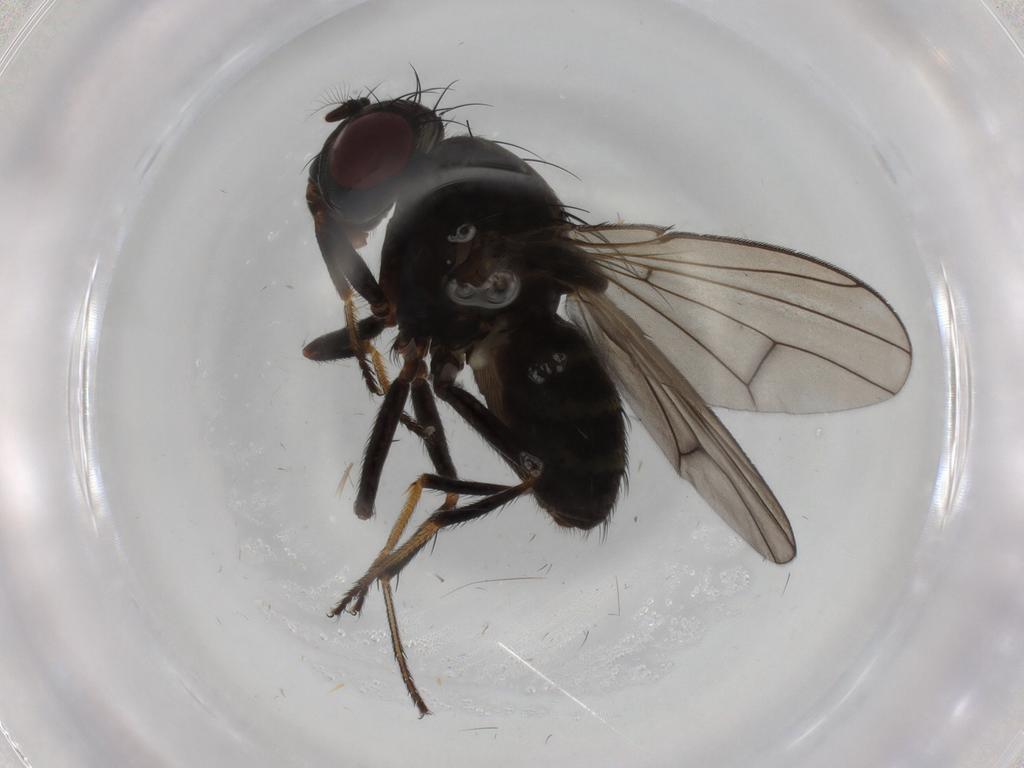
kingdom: Animalia
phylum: Arthropoda
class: Insecta
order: Diptera
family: Ephydridae
